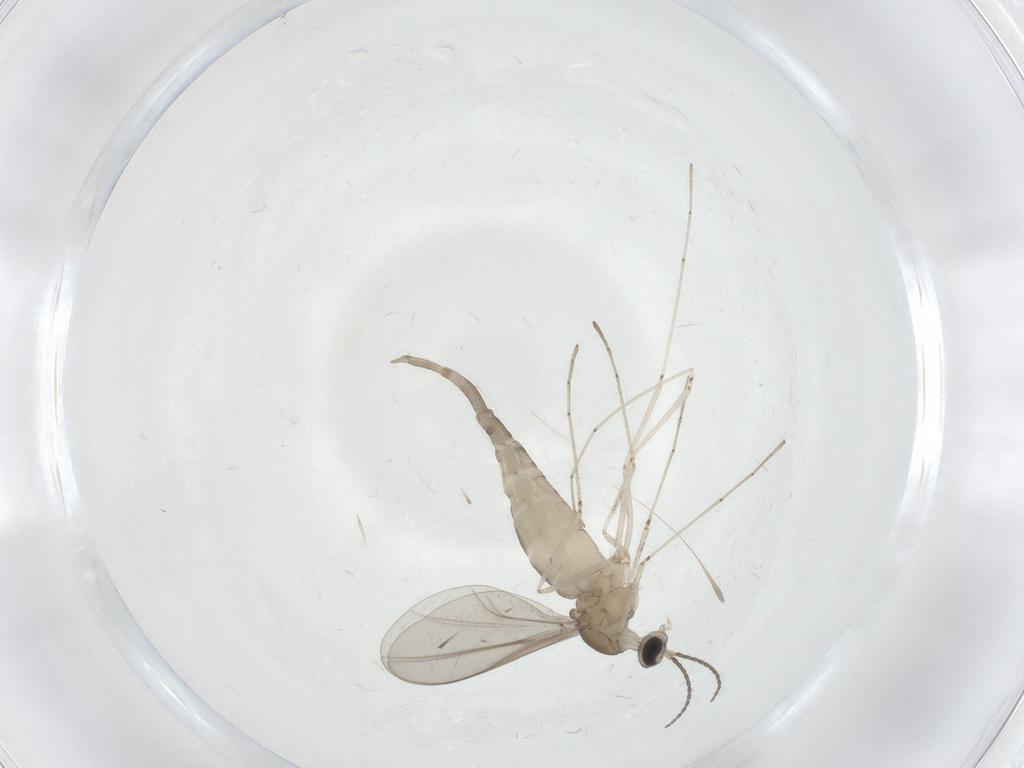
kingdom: Animalia
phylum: Arthropoda
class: Insecta
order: Diptera
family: Cecidomyiidae
